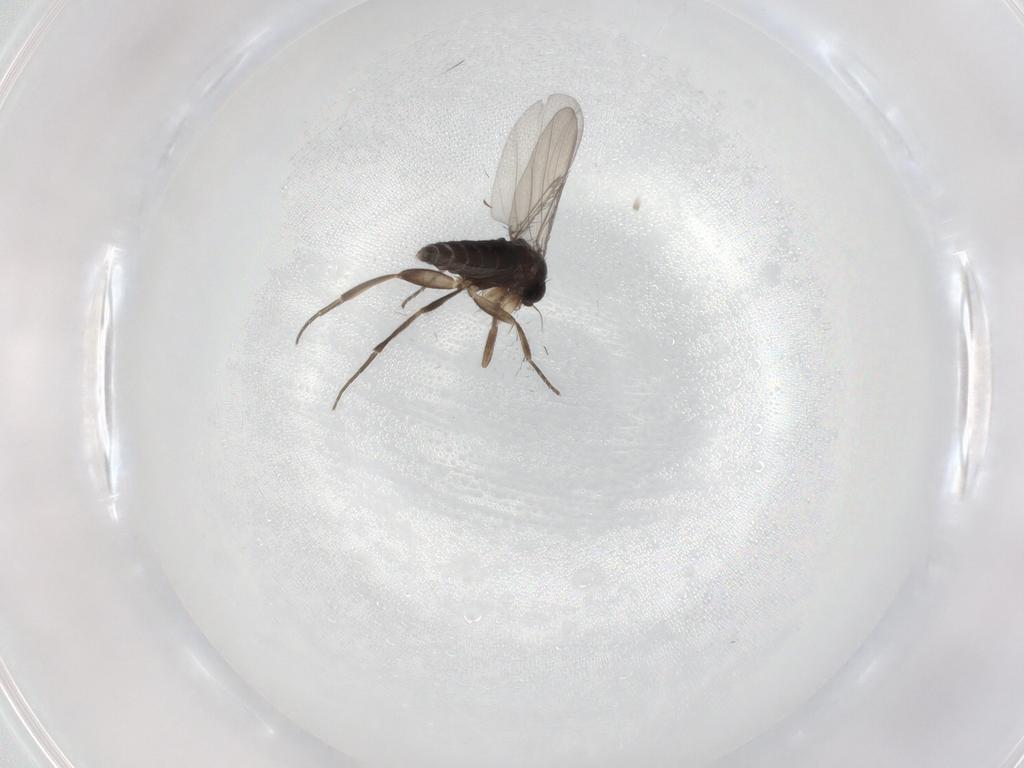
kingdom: Animalia
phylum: Arthropoda
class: Insecta
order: Diptera
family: Phoridae
